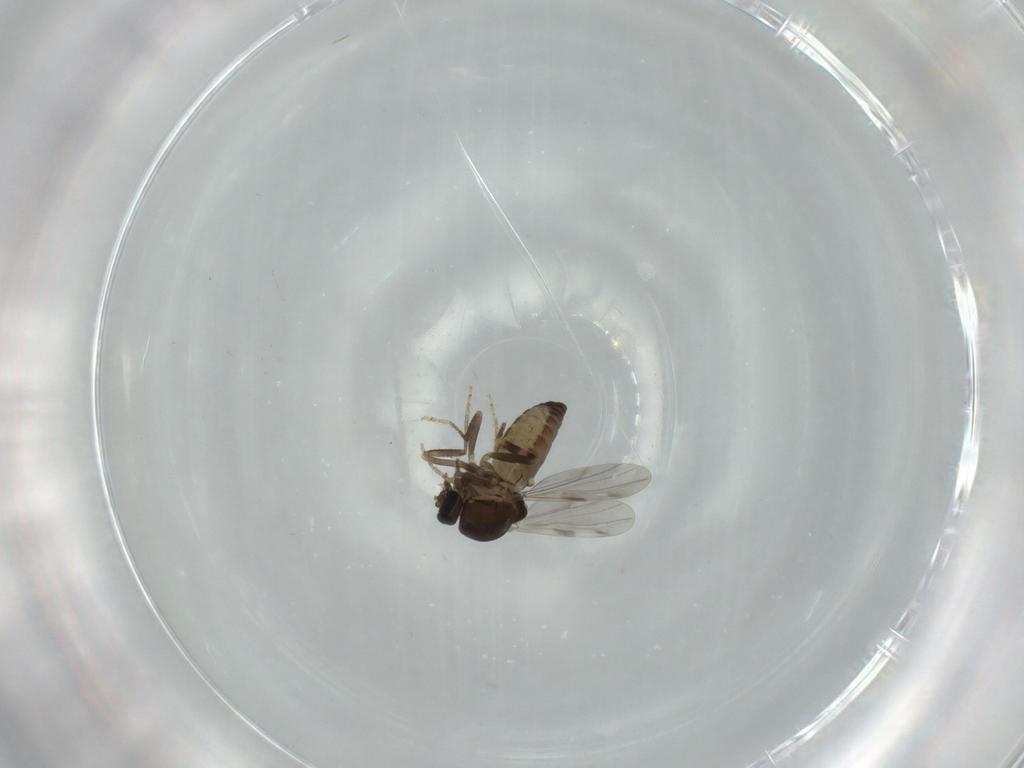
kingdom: Animalia
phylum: Arthropoda
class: Insecta
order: Diptera
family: Ceratopogonidae
